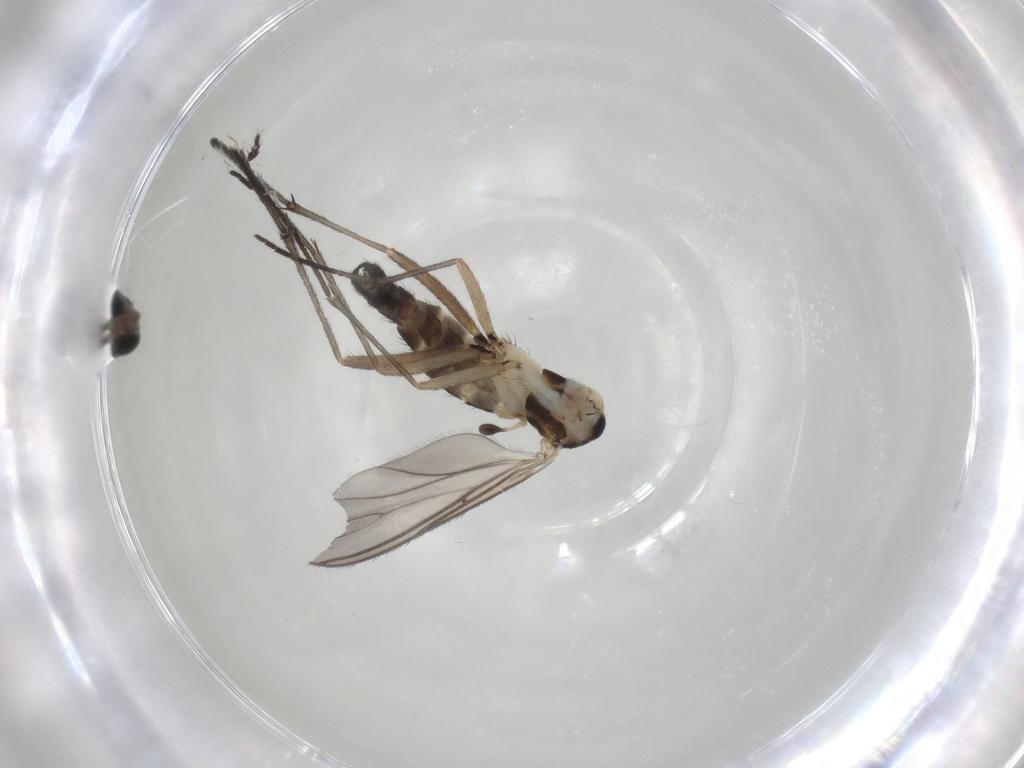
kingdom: Animalia
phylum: Arthropoda
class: Insecta
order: Diptera
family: Sciaridae
